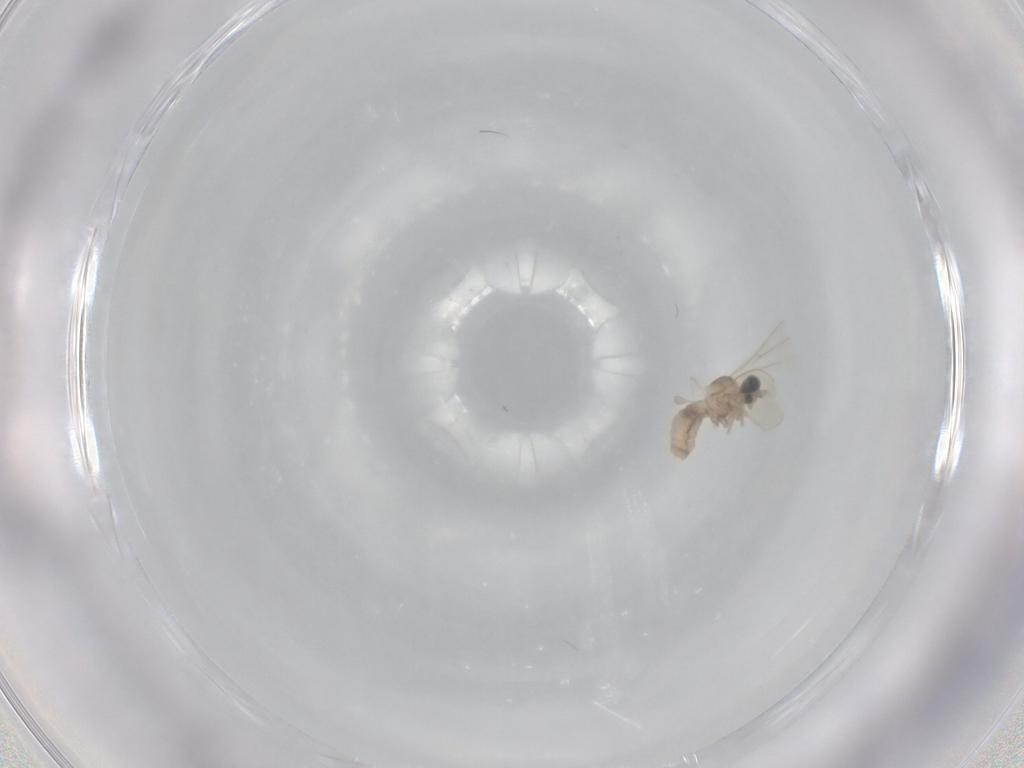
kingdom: Animalia
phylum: Arthropoda
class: Insecta
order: Diptera
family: Cecidomyiidae
